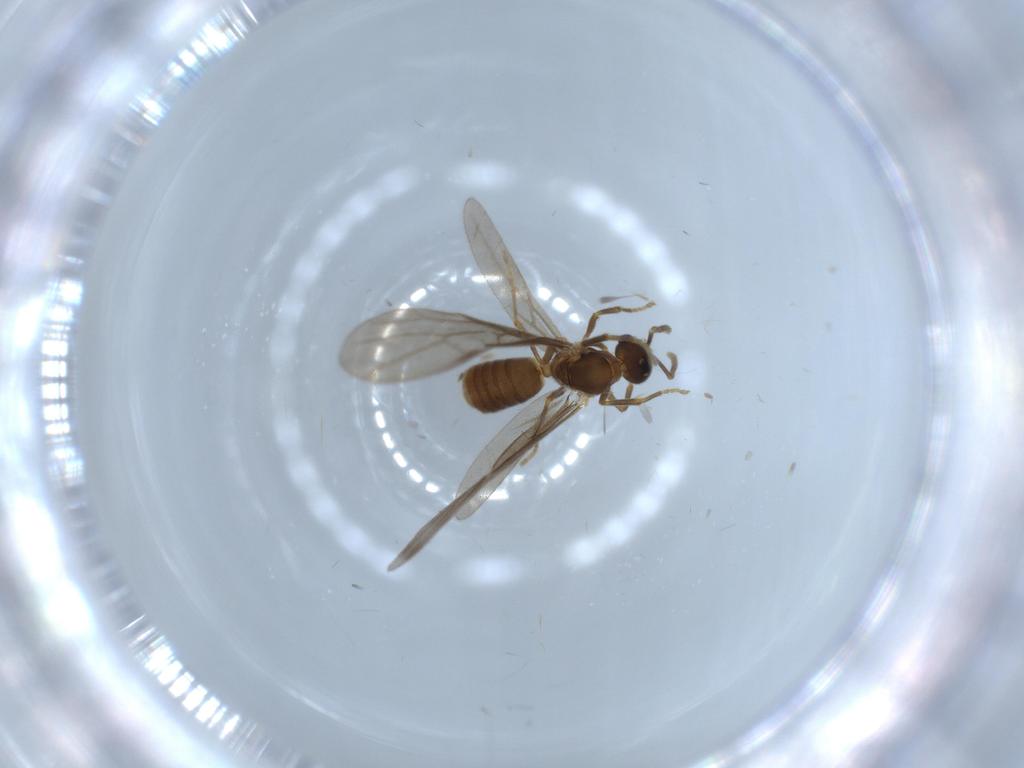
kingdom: Animalia
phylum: Arthropoda
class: Insecta
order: Hymenoptera
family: Formicidae
